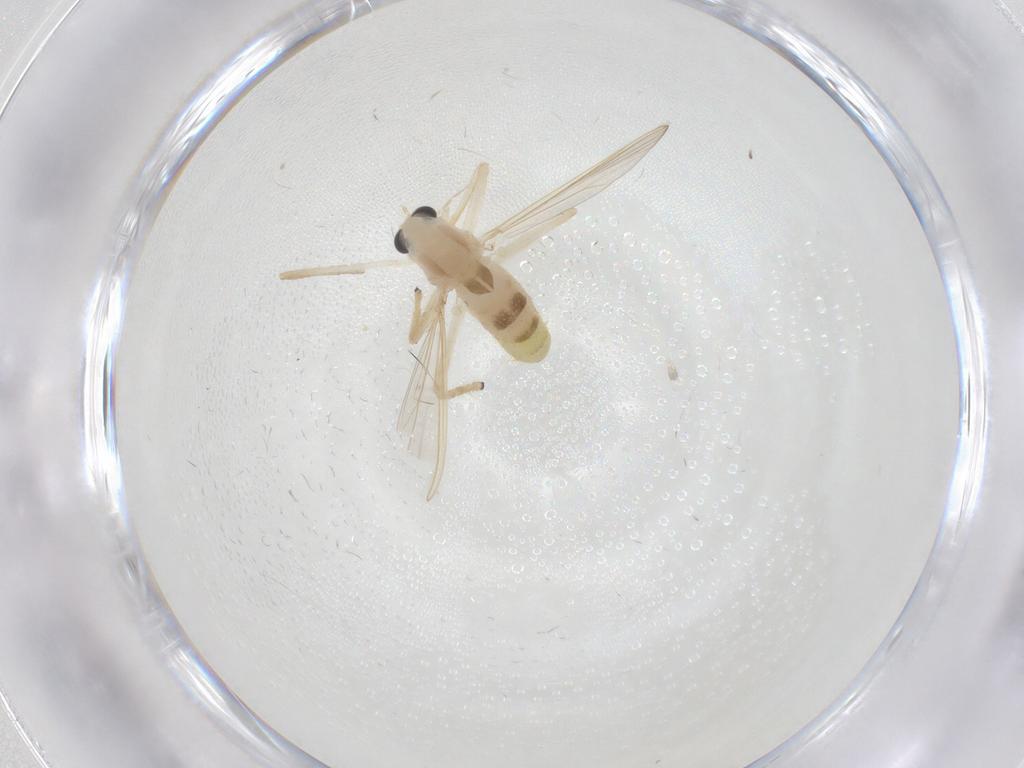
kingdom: Animalia
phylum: Arthropoda
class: Insecta
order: Diptera
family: Chironomidae
